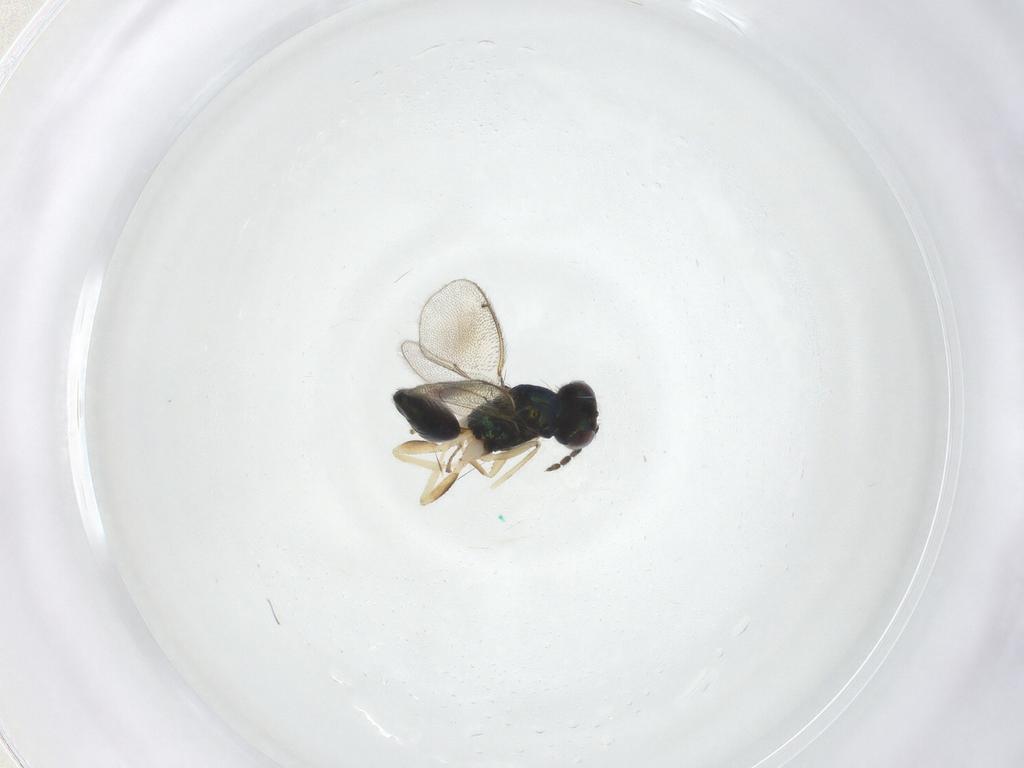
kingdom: Animalia
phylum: Arthropoda
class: Insecta
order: Hymenoptera
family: Eulophidae
